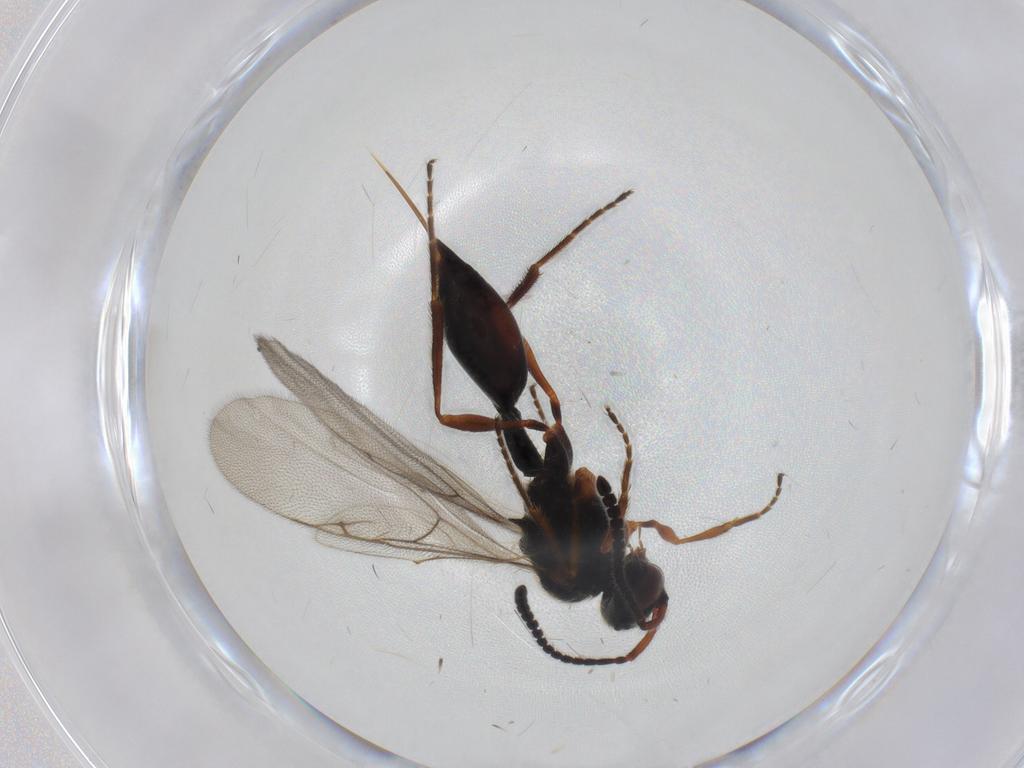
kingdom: Animalia
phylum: Arthropoda
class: Insecta
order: Hymenoptera
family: Diapriidae
